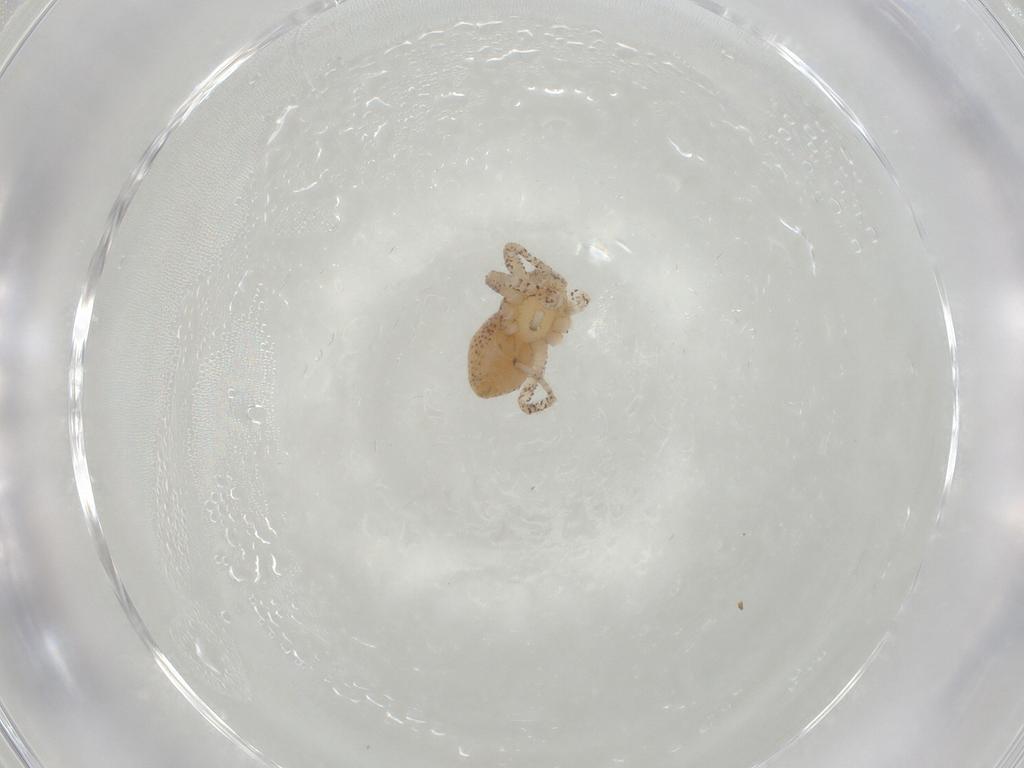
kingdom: Animalia
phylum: Arthropoda
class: Arachnida
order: Araneae
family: Philodromidae
